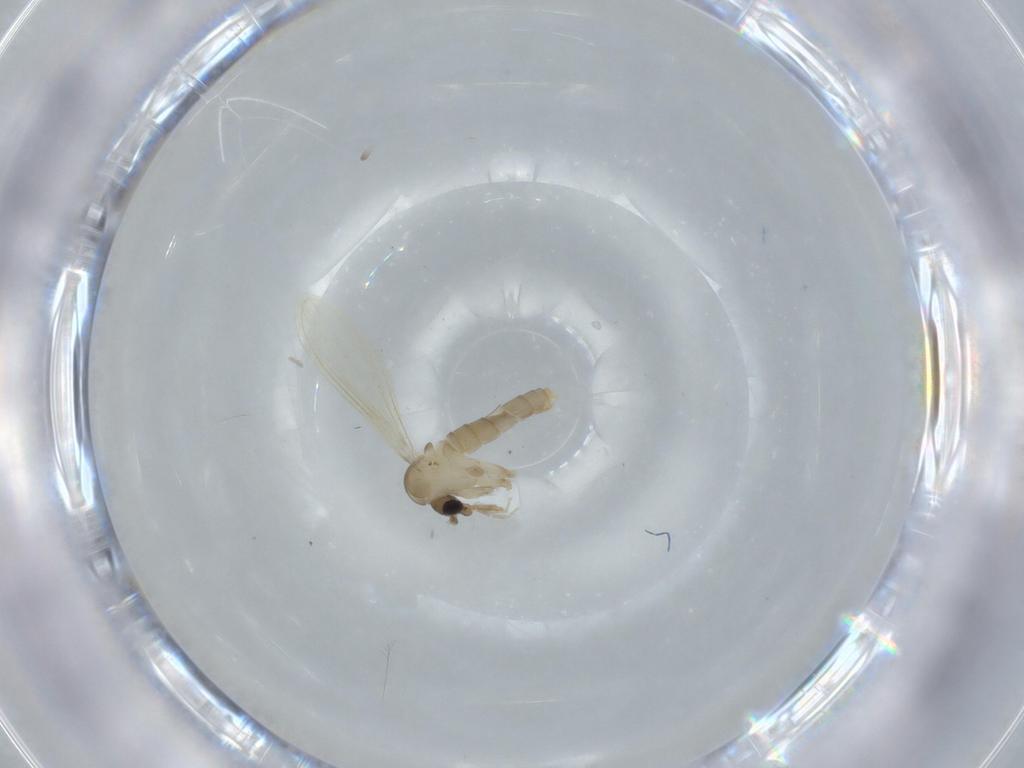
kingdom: Animalia
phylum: Arthropoda
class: Insecta
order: Diptera
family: Psychodidae
